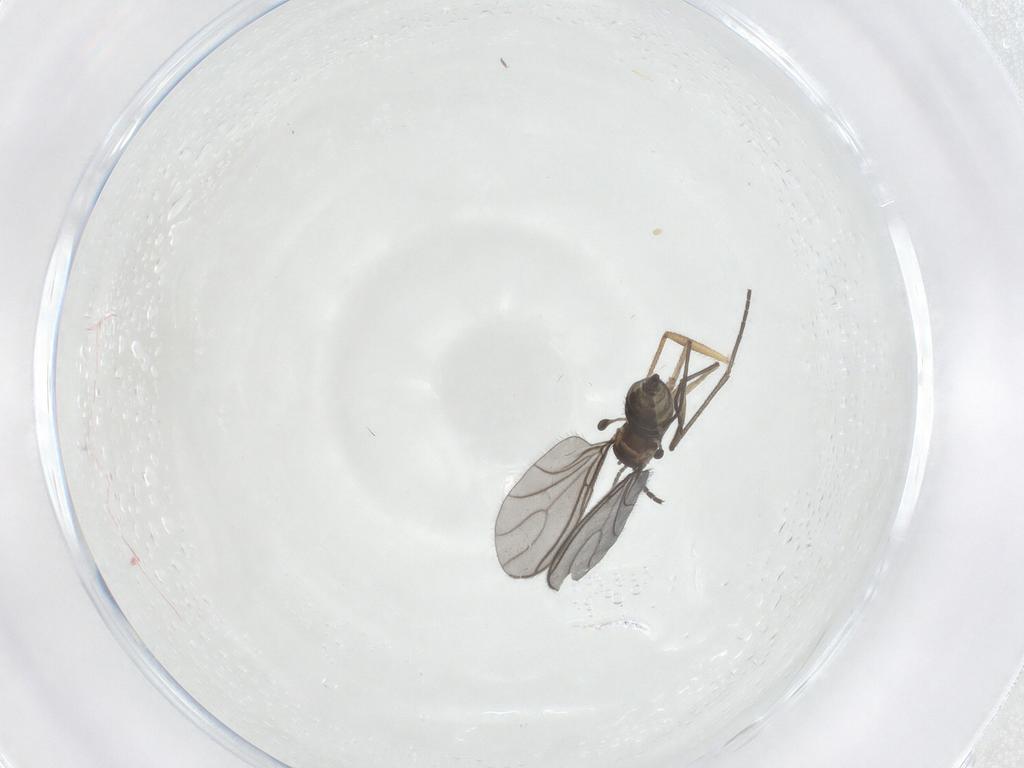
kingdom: Animalia
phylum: Arthropoda
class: Insecta
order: Diptera
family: Sciaridae
